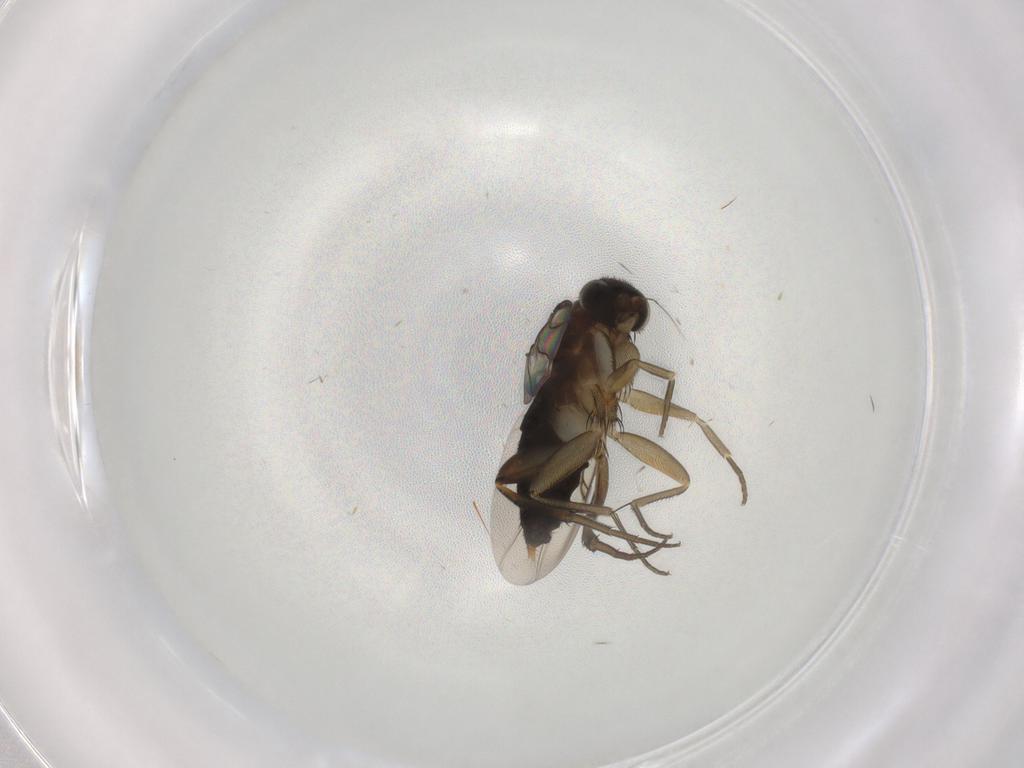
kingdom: Animalia
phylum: Arthropoda
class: Insecta
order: Diptera
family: Phoridae
